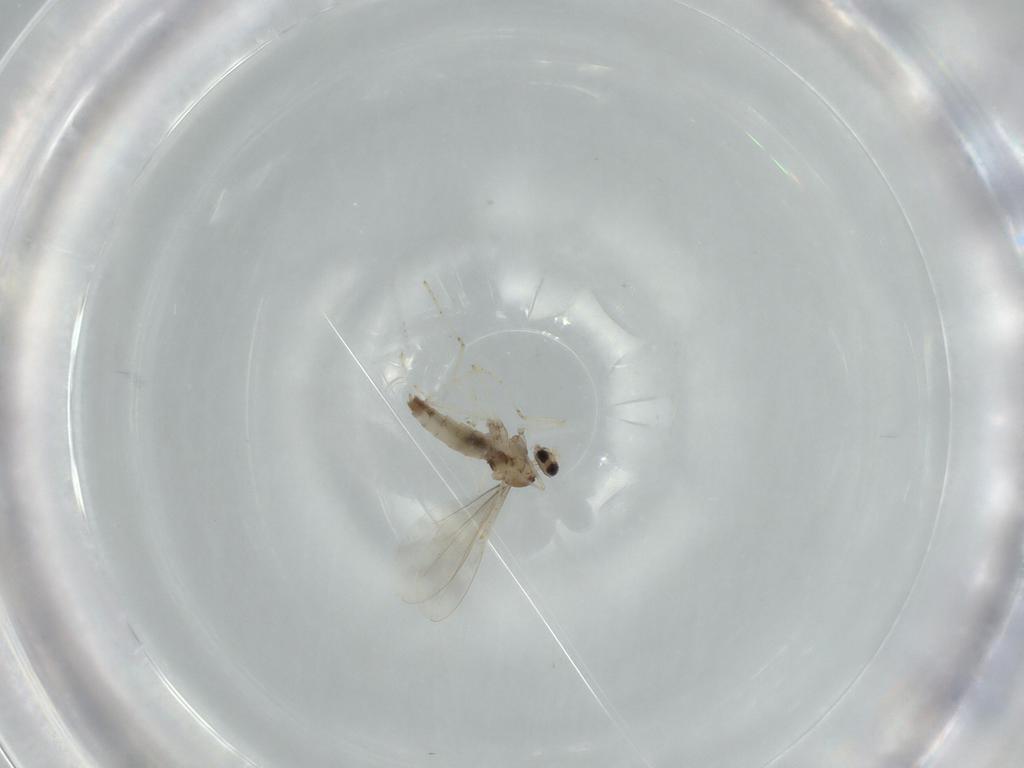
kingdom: Animalia
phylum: Arthropoda
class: Insecta
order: Diptera
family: Cecidomyiidae
